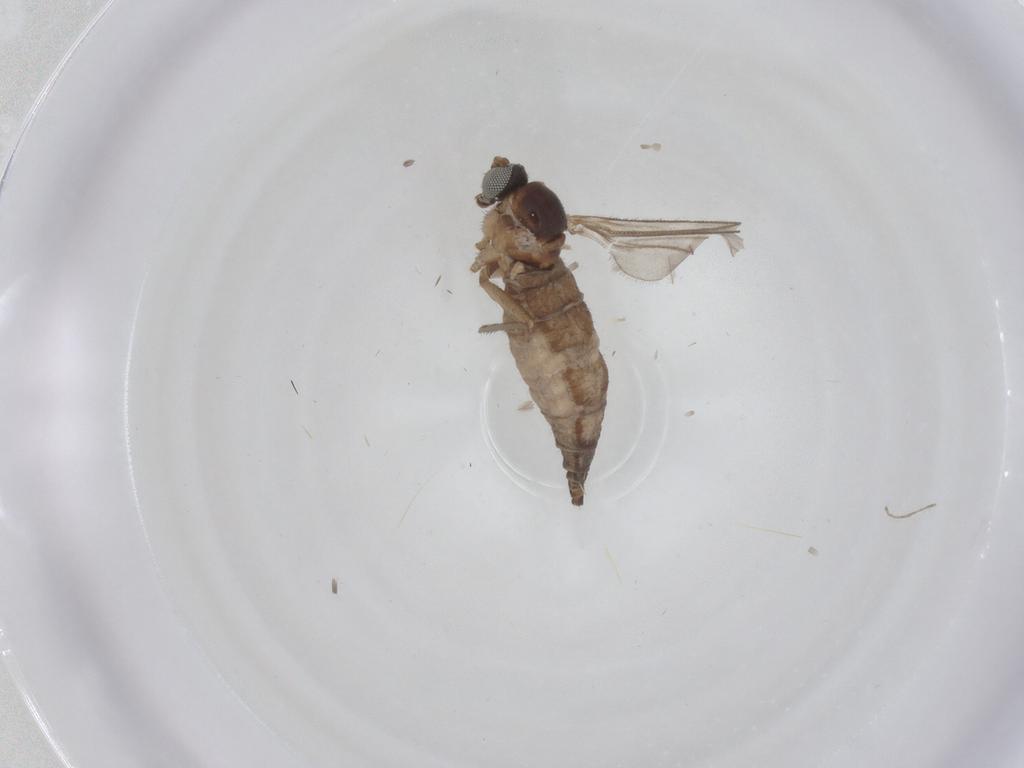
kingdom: Animalia
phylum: Arthropoda
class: Insecta
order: Diptera
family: Sciaridae
